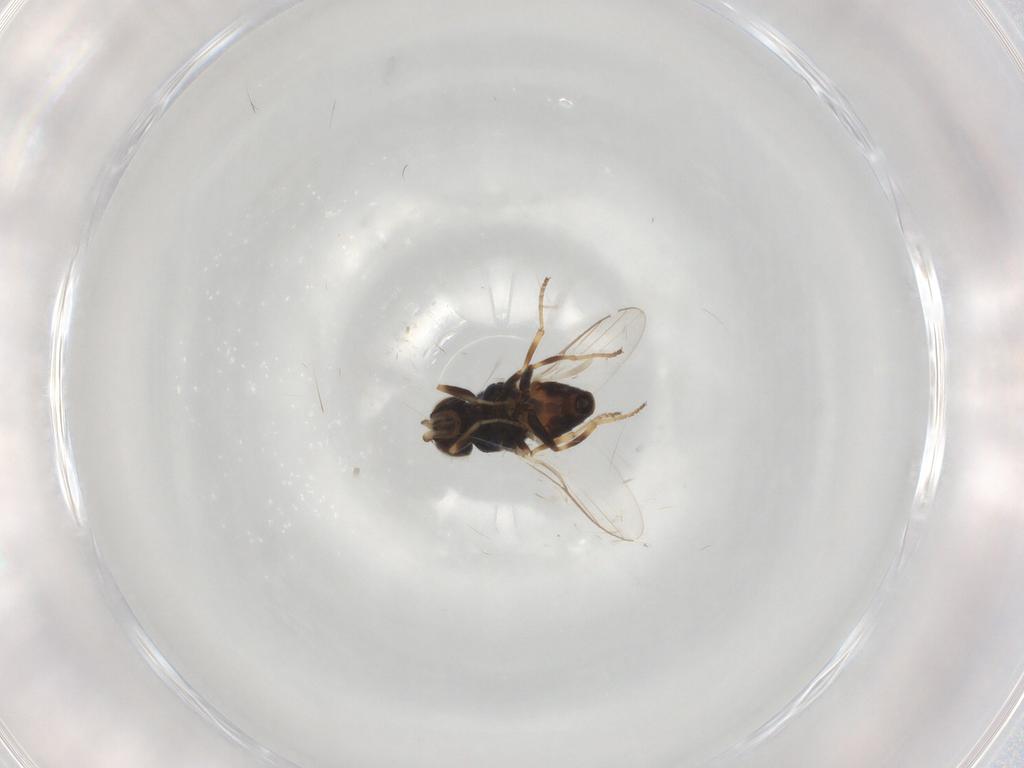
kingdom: Animalia
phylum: Arthropoda
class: Insecta
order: Diptera
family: Chloropidae
